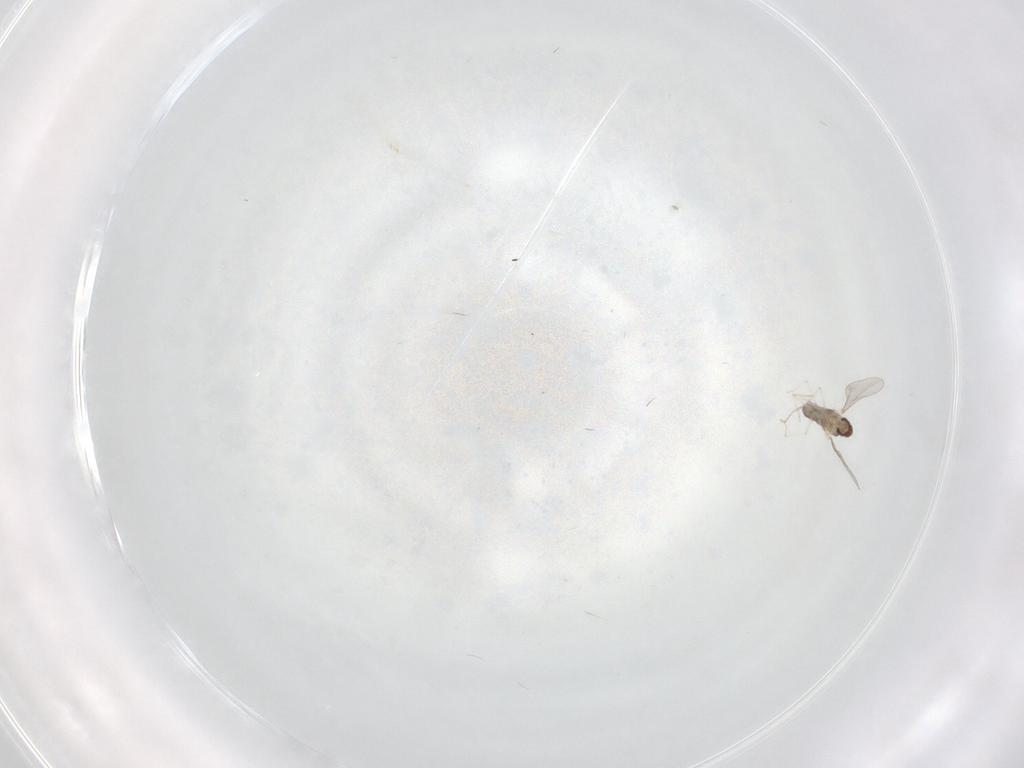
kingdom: Animalia
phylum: Arthropoda
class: Insecta
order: Diptera
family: Cecidomyiidae
